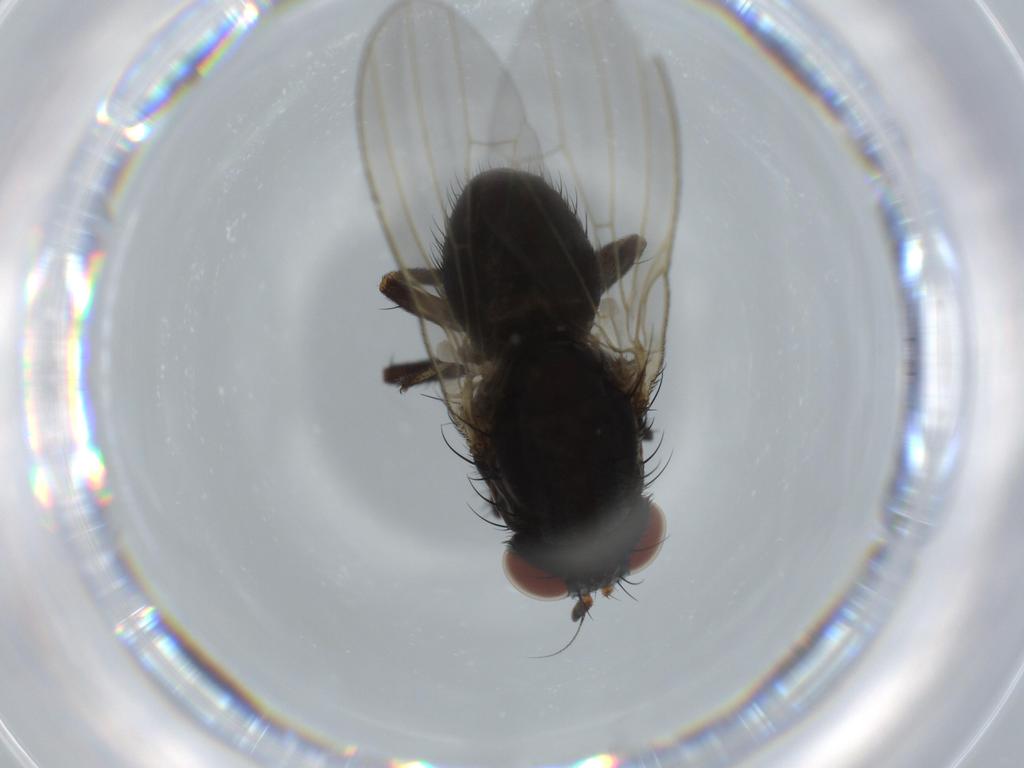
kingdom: Animalia
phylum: Arthropoda
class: Insecta
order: Diptera
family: Lauxaniidae
